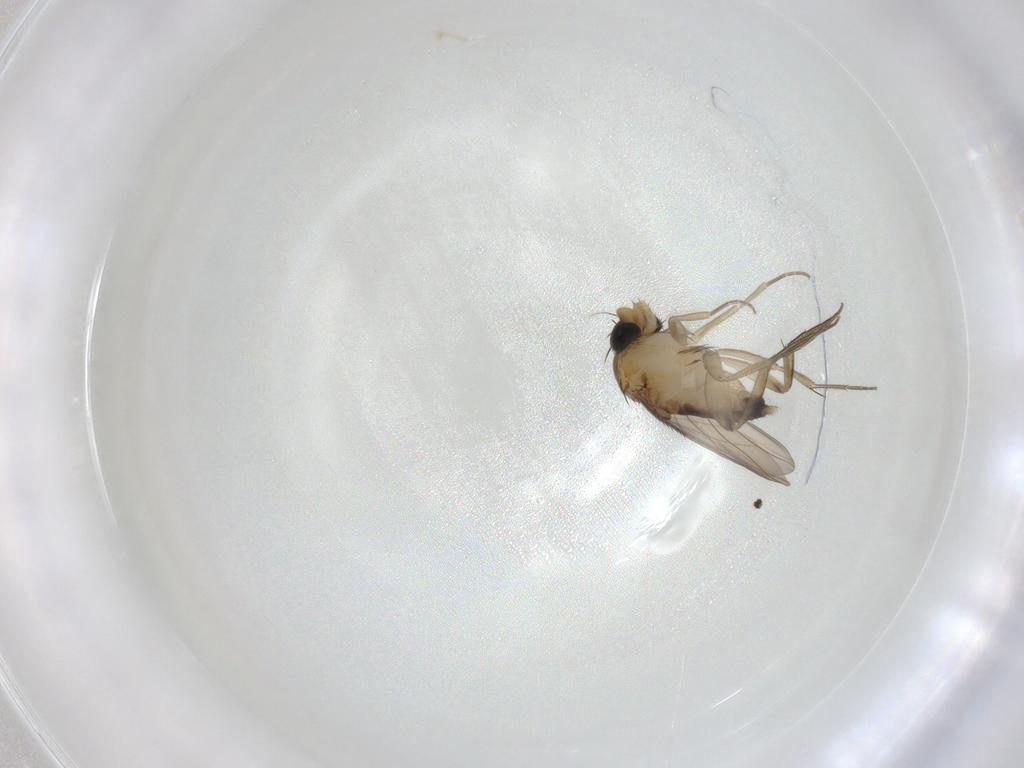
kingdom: Animalia
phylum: Arthropoda
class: Insecta
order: Diptera
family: Phoridae
